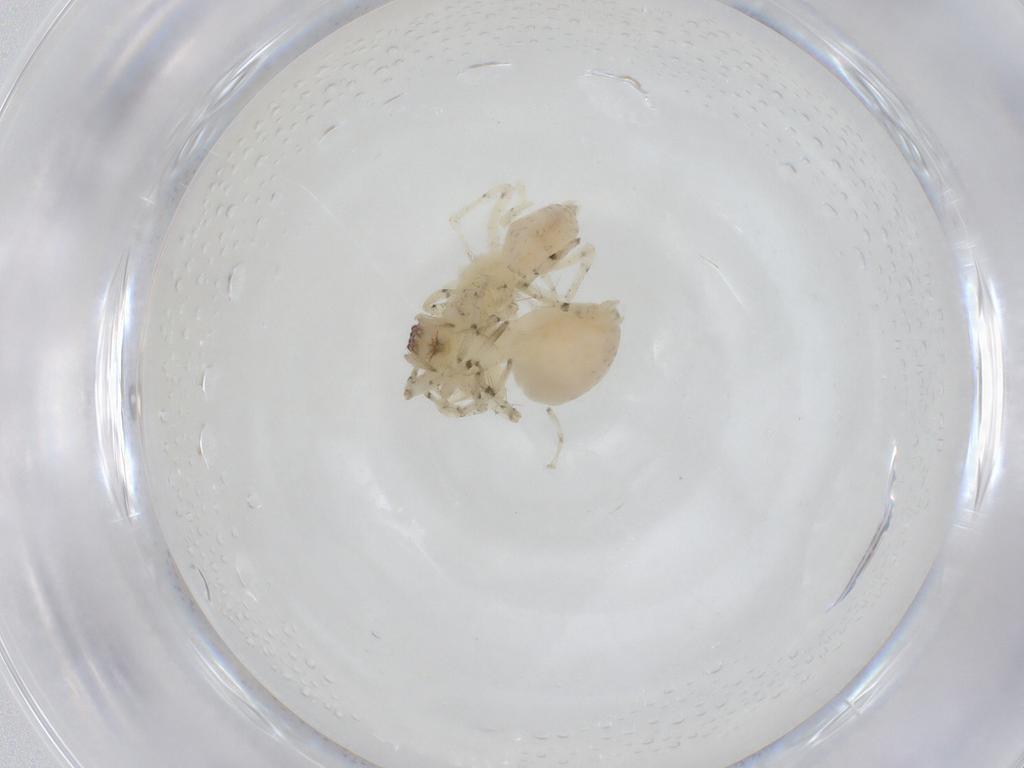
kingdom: Animalia
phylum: Arthropoda
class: Arachnida
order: Araneae
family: Anyphaenidae
